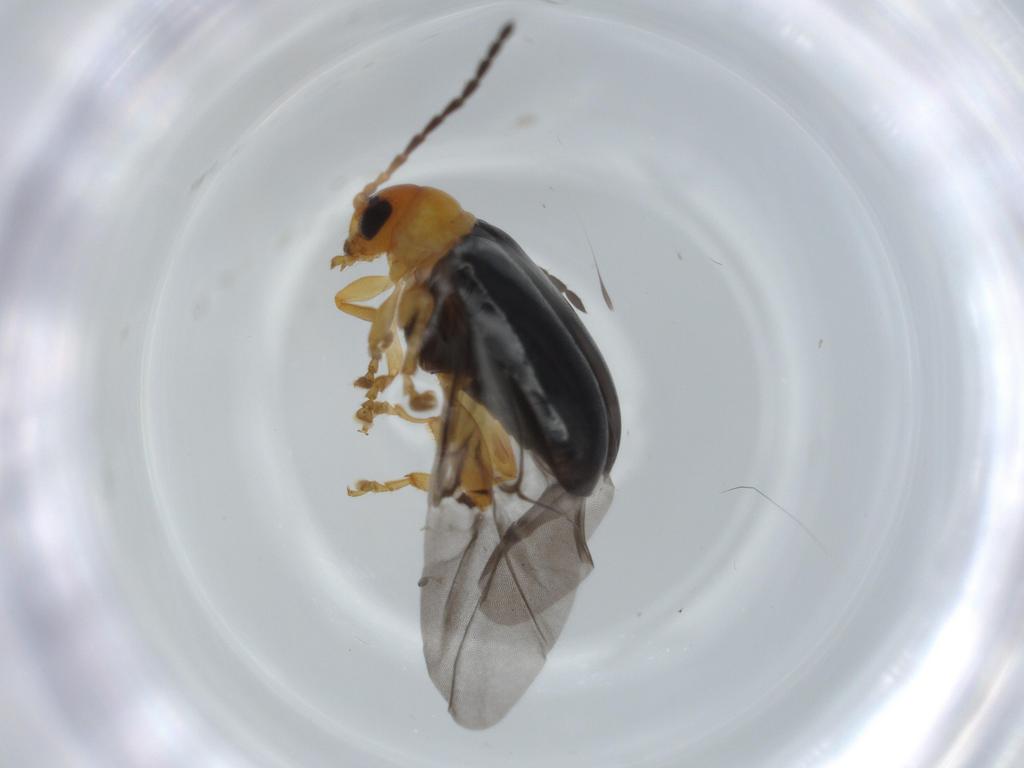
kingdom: Animalia
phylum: Arthropoda
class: Insecta
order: Coleoptera
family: Chrysomelidae
